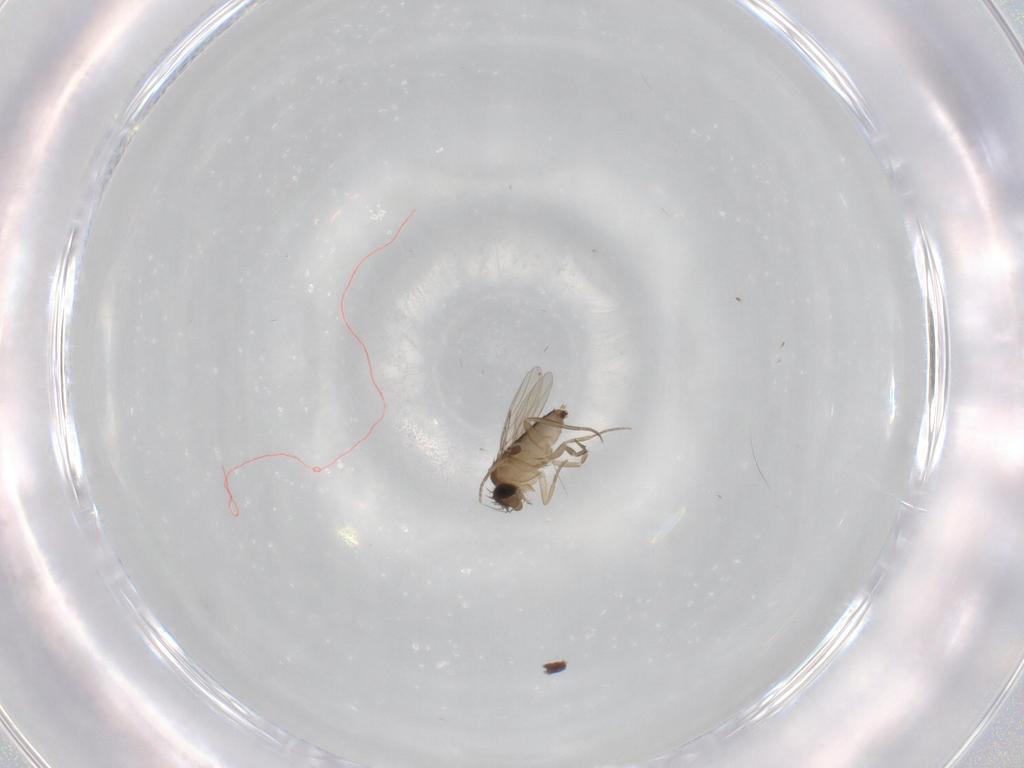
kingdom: Animalia
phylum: Arthropoda
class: Insecta
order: Diptera
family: Phoridae
